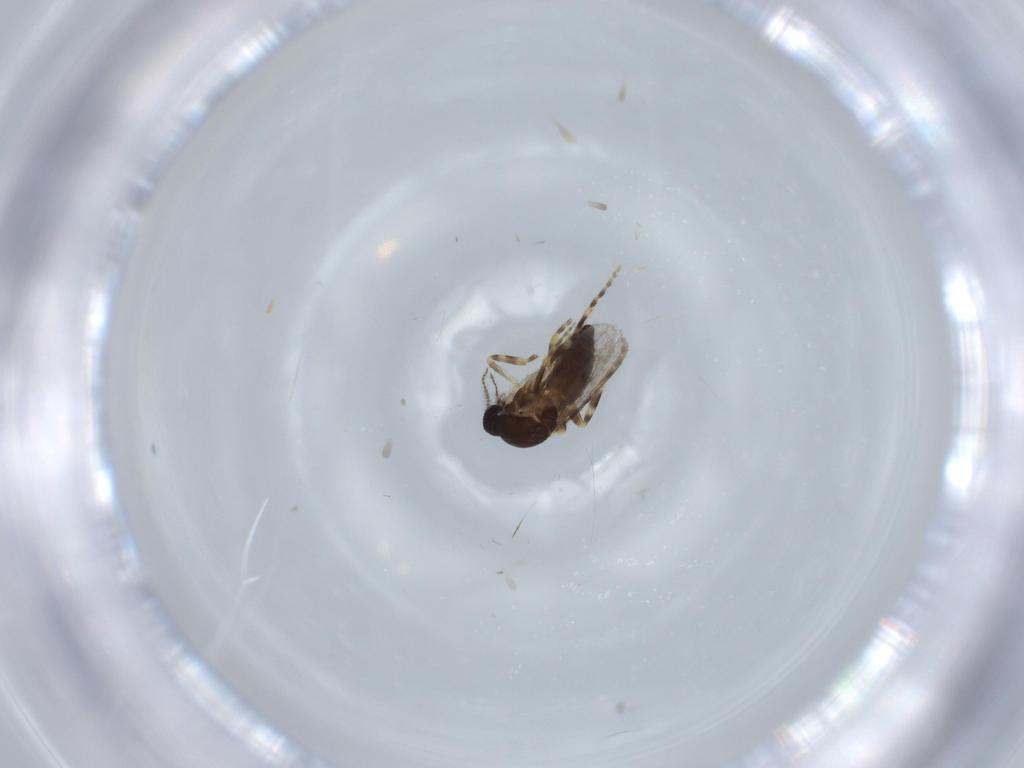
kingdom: Animalia
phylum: Arthropoda
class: Insecta
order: Diptera
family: Ceratopogonidae
